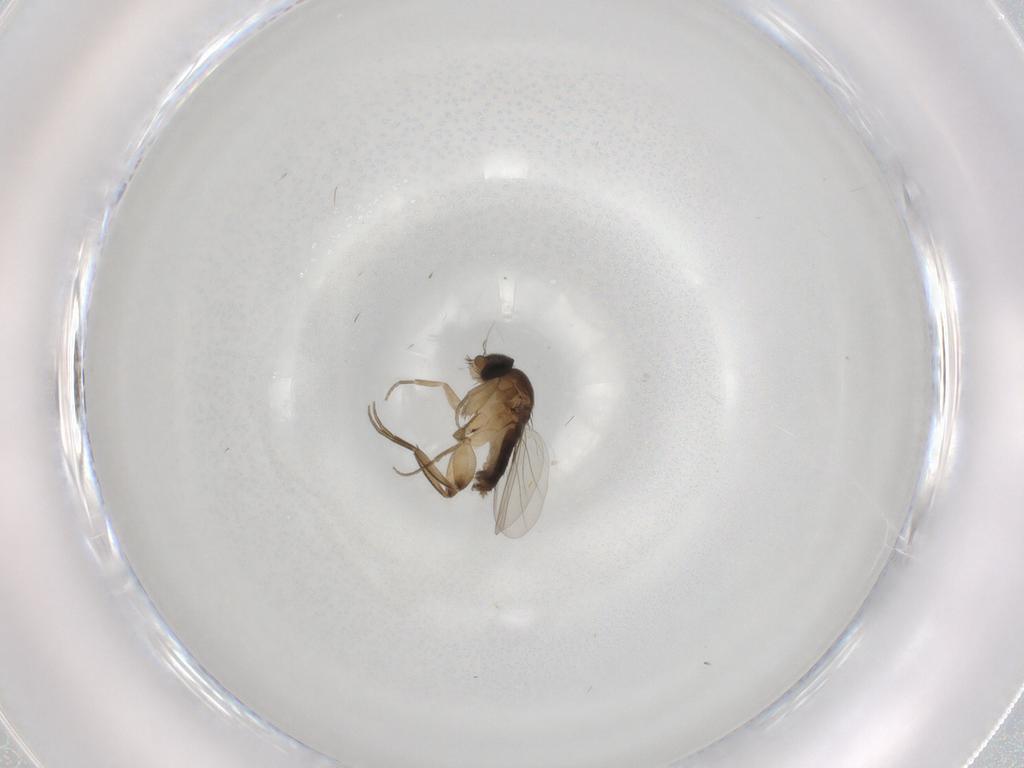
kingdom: Animalia
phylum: Arthropoda
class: Insecta
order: Diptera
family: Phoridae
